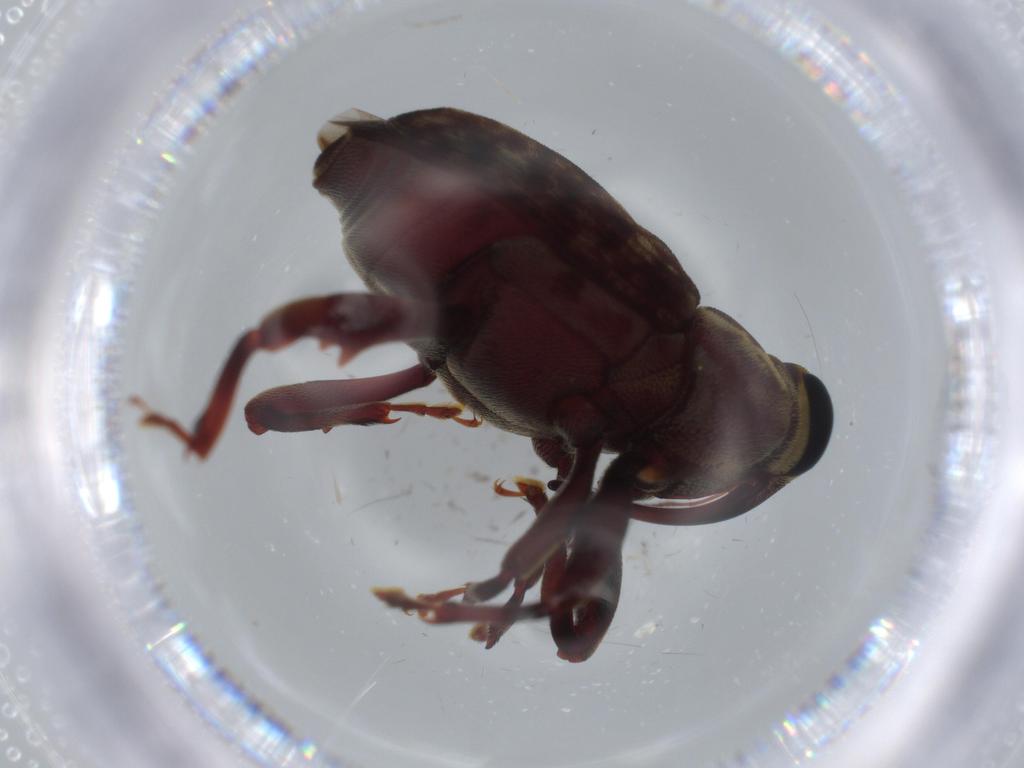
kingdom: Animalia
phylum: Arthropoda
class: Insecta
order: Coleoptera
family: Curculionidae
